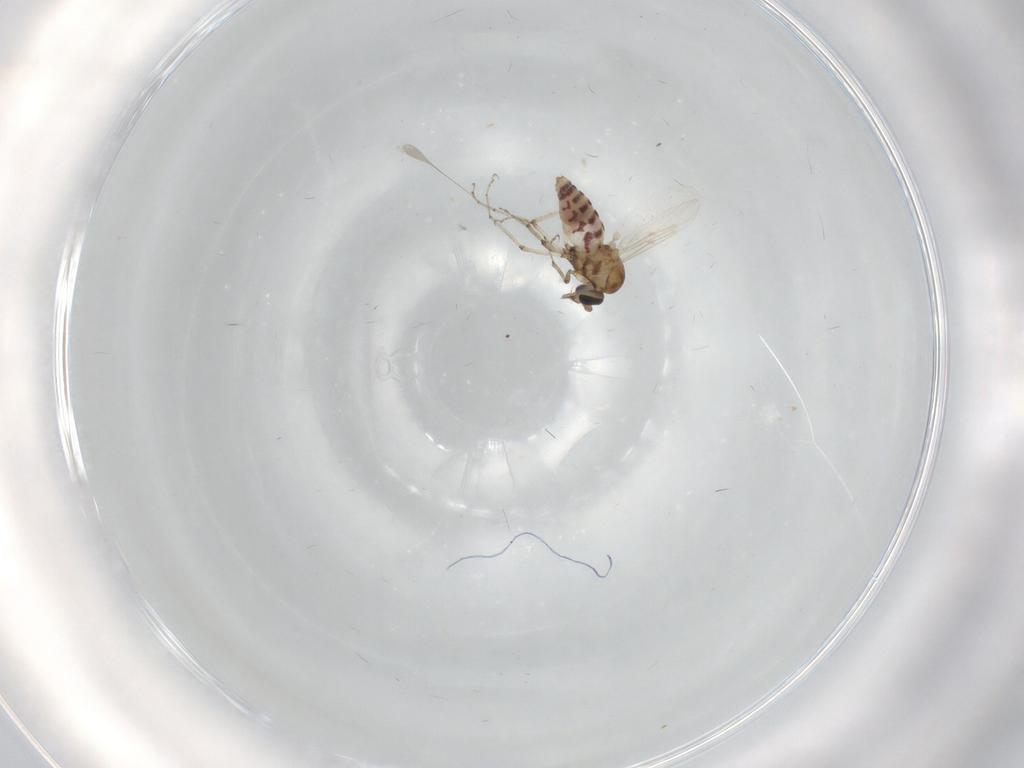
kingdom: Animalia
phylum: Arthropoda
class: Insecta
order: Diptera
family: Ceratopogonidae
